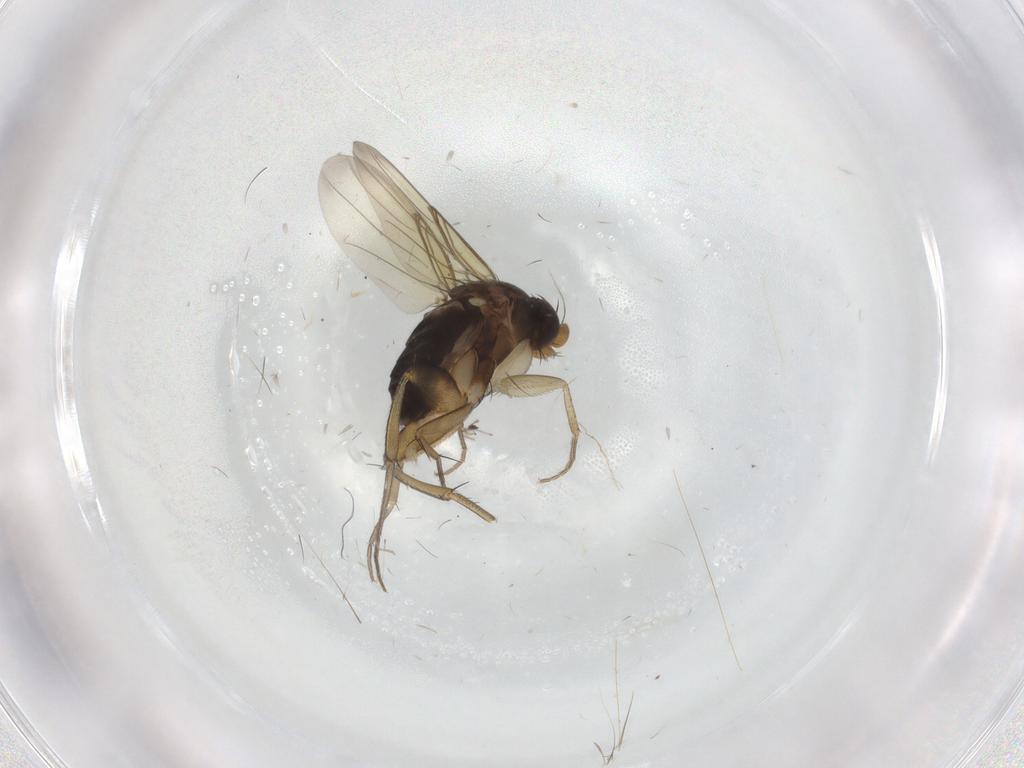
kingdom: Animalia
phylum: Arthropoda
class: Insecta
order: Diptera
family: Phoridae
